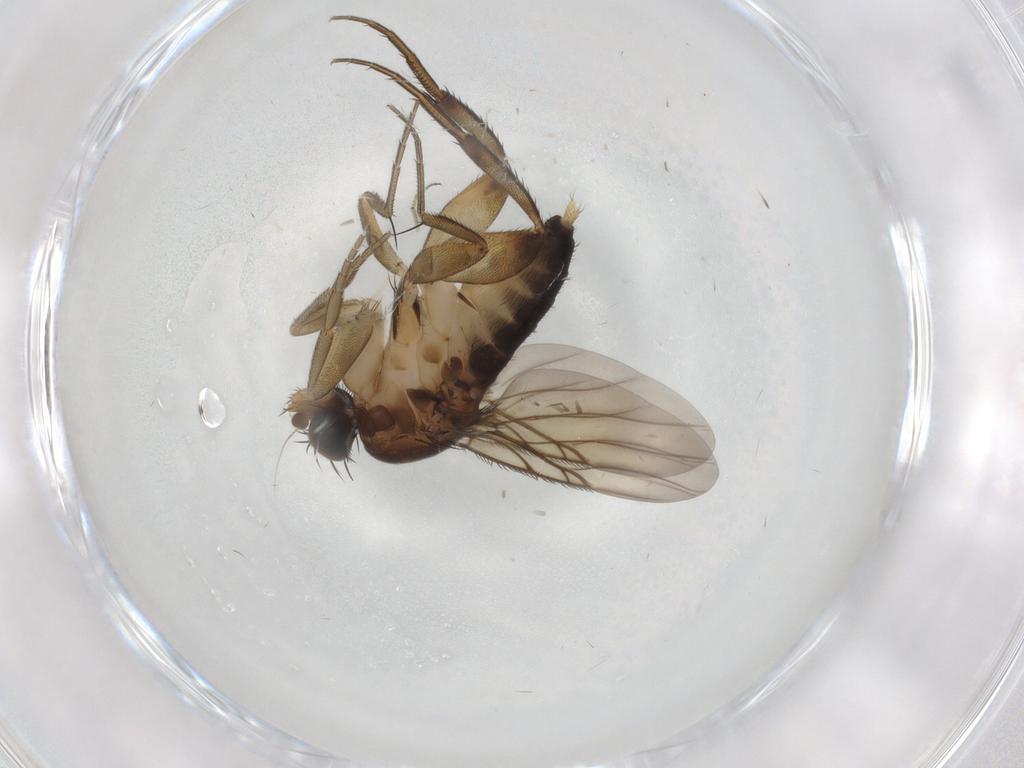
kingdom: Animalia
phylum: Arthropoda
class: Insecta
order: Diptera
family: Phoridae
